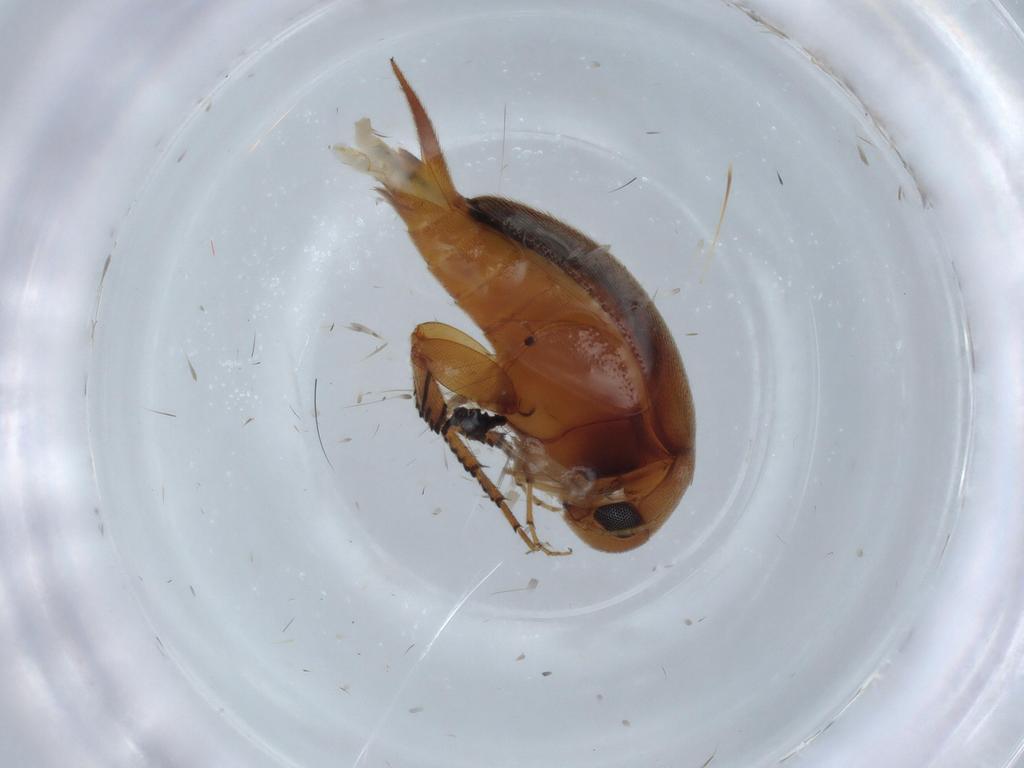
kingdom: Animalia
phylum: Arthropoda
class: Insecta
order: Coleoptera
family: Mordellidae
